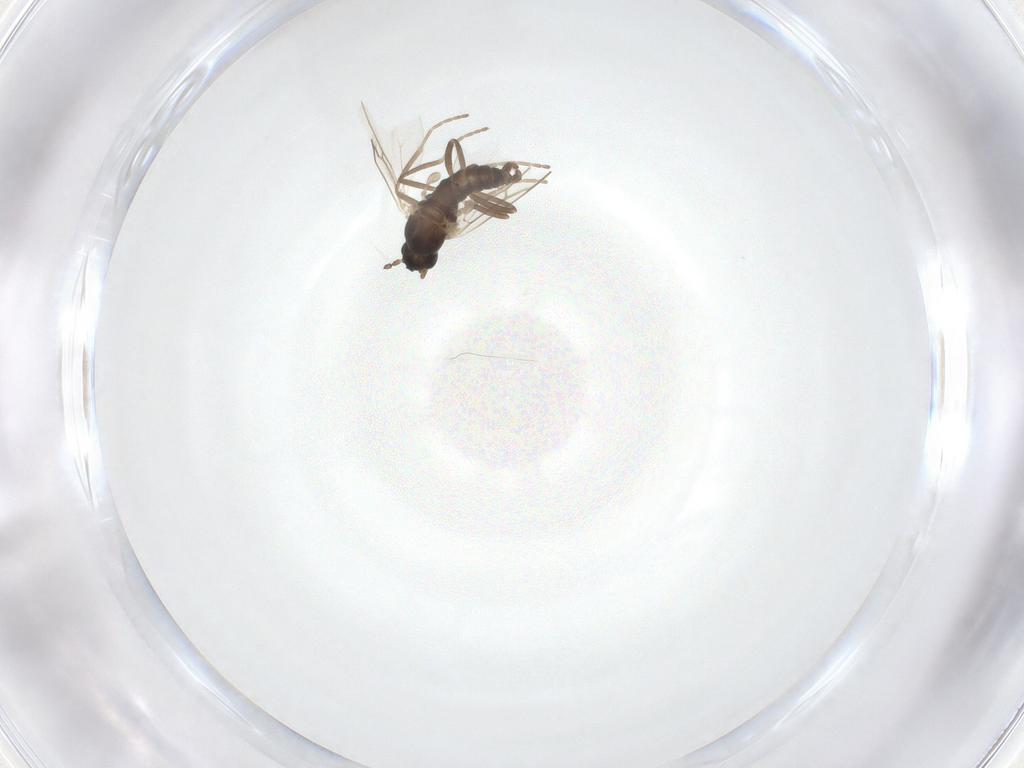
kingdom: Animalia
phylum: Arthropoda
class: Insecta
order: Diptera
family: Cecidomyiidae
